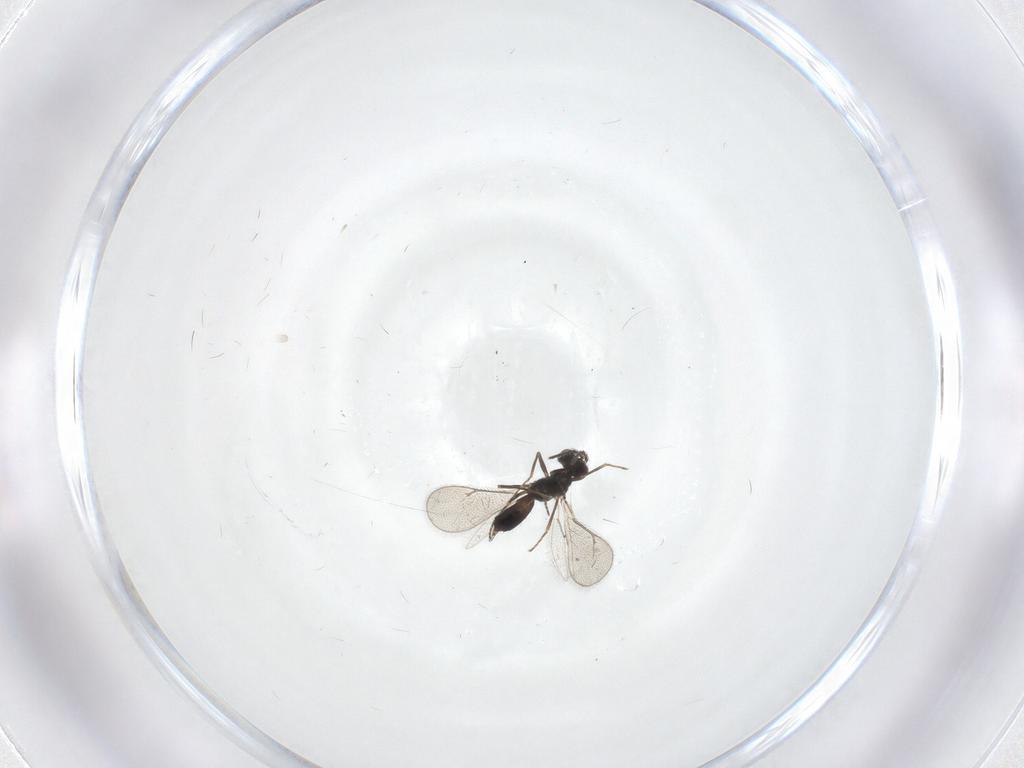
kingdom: Animalia
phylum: Arthropoda
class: Insecta
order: Hymenoptera
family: Eulophidae
